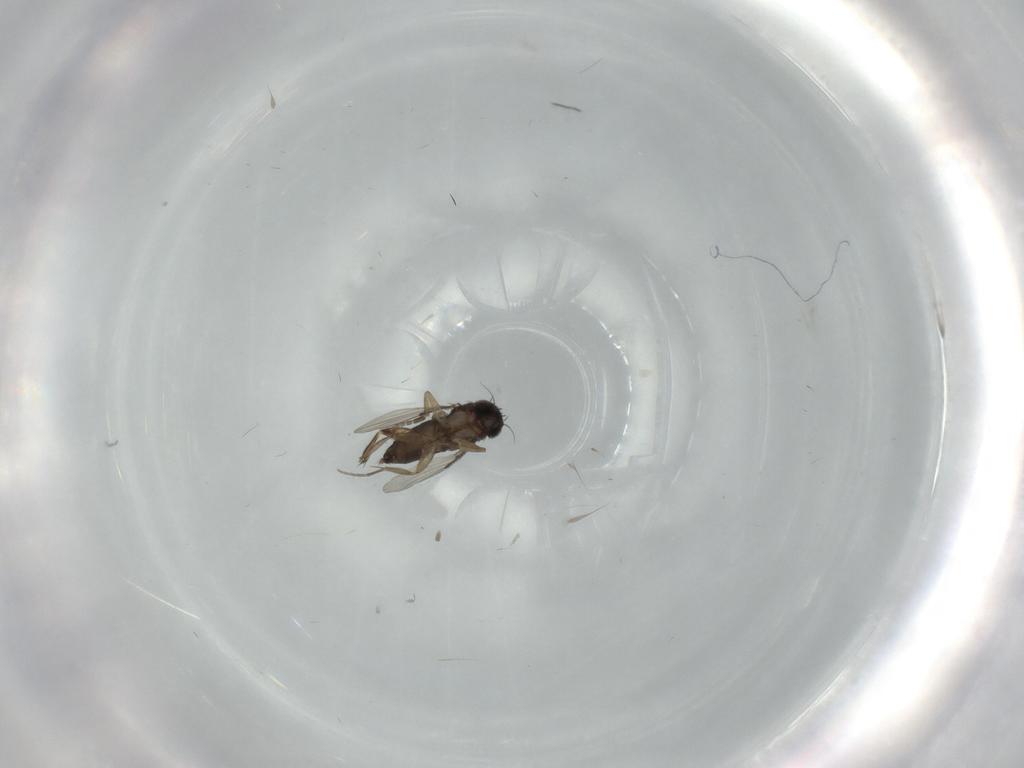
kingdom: Animalia
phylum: Arthropoda
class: Insecta
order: Diptera
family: Phoridae
